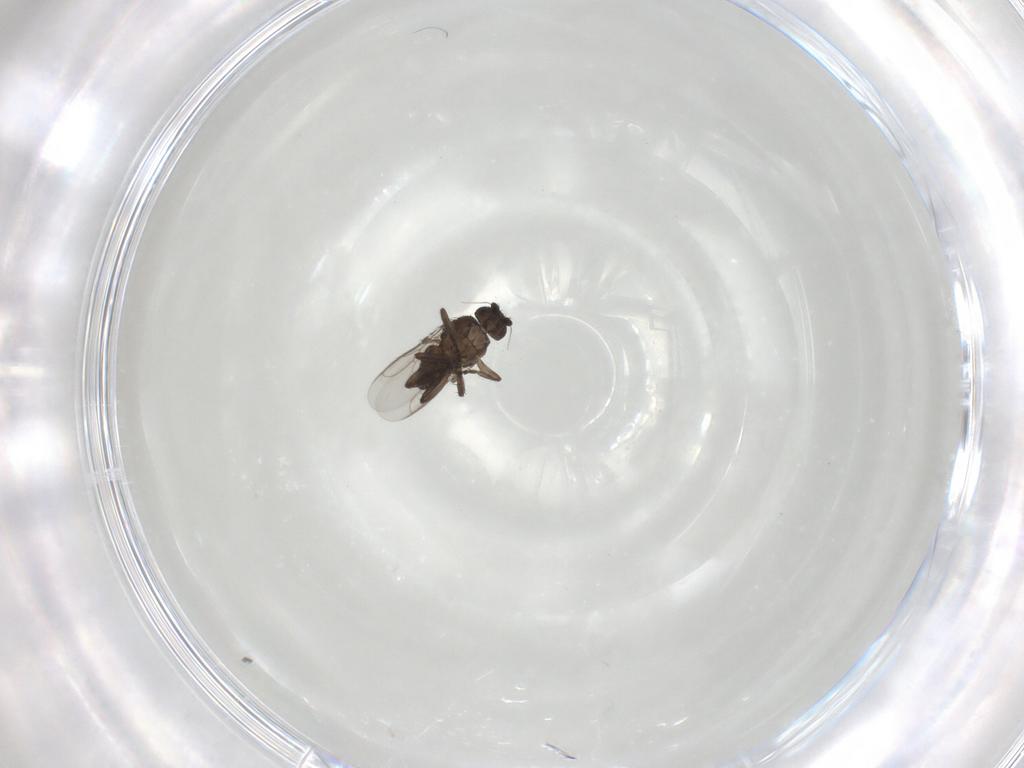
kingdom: Animalia
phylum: Arthropoda
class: Insecta
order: Diptera
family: Sphaeroceridae
